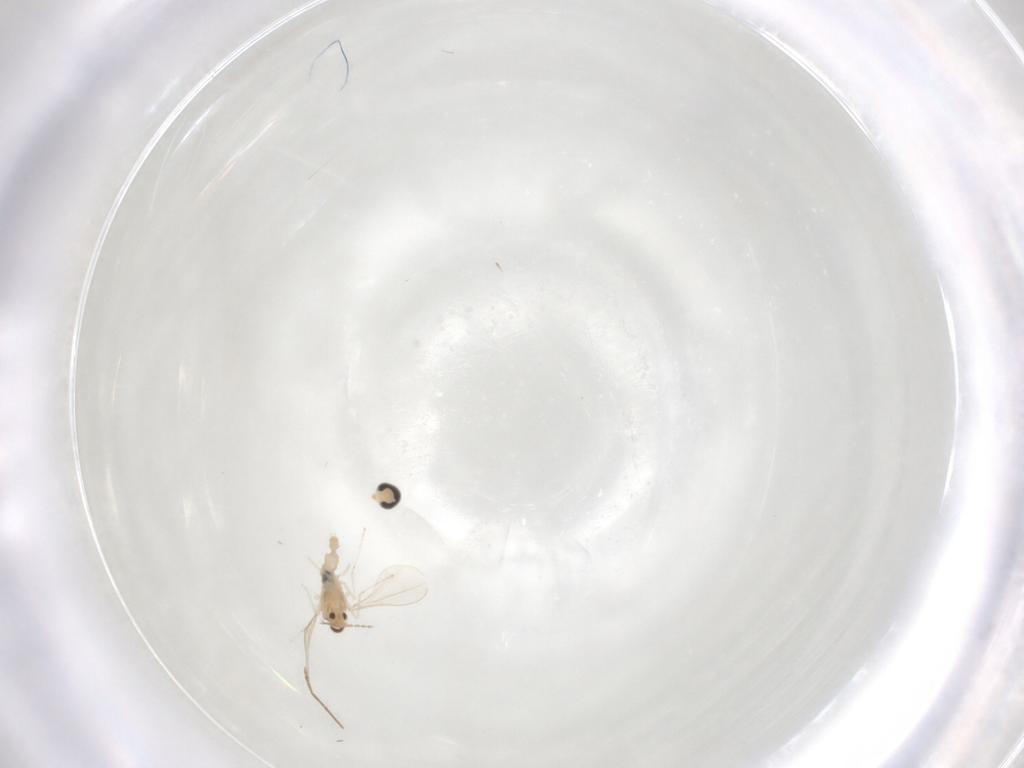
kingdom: Animalia
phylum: Arthropoda
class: Insecta
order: Diptera
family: Cecidomyiidae
